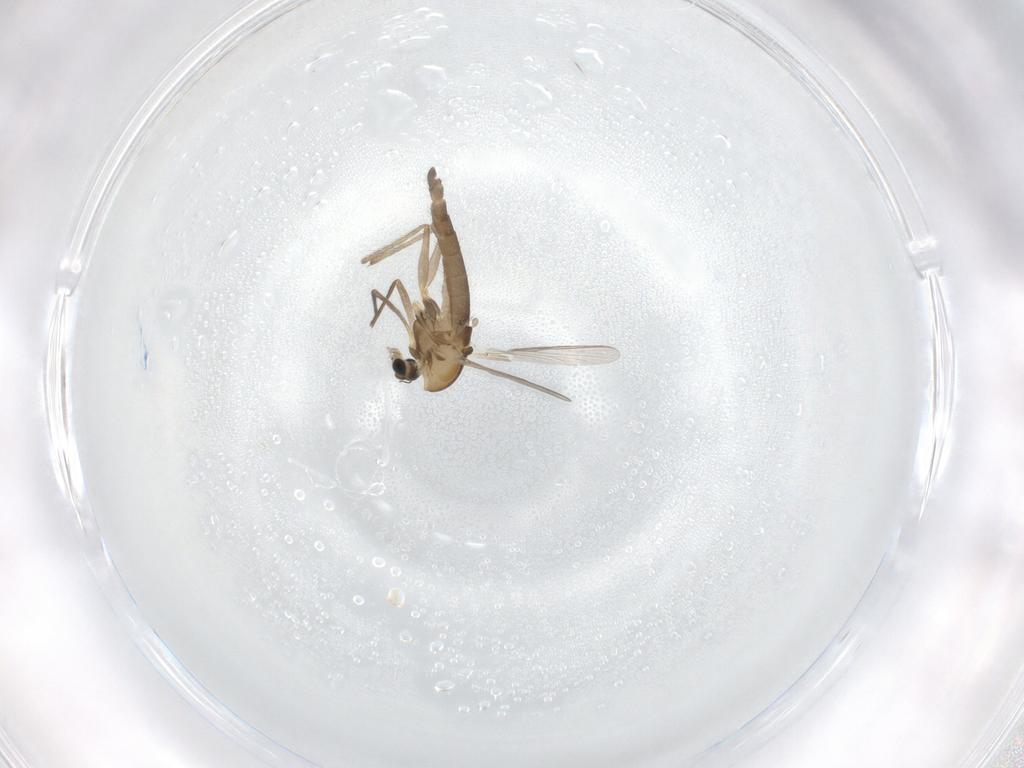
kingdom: Animalia
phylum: Arthropoda
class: Insecta
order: Diptera
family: Chironomidae
